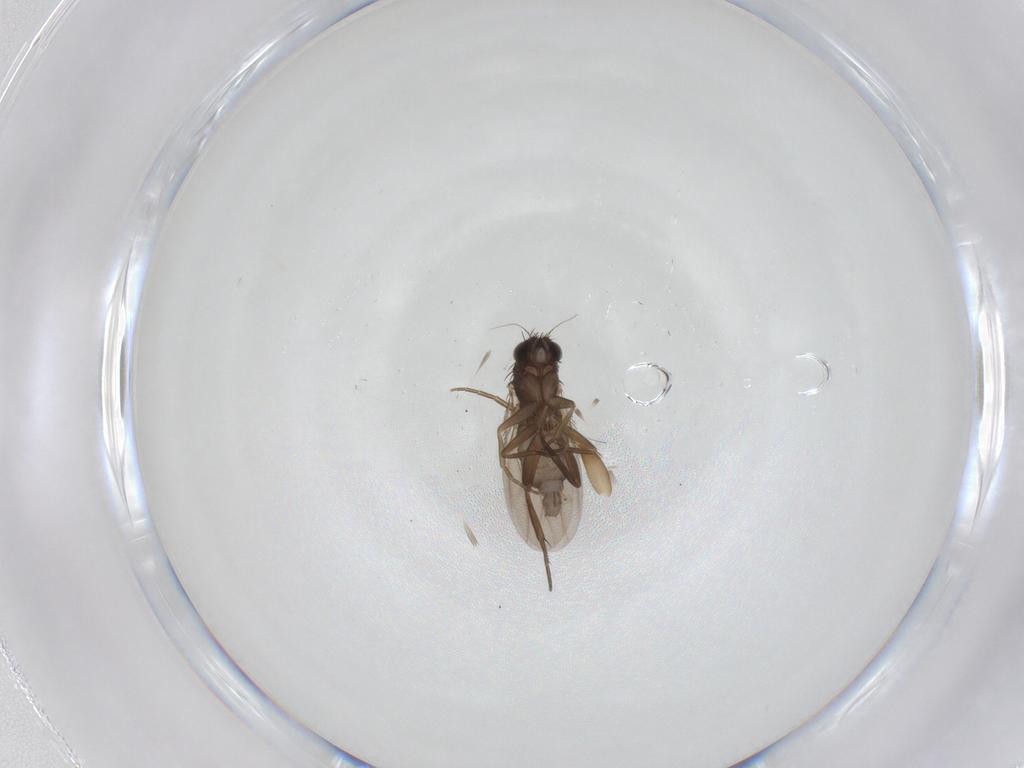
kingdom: Animalia
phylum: Arthropoda
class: Insecta
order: Diptera
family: Phoridae
